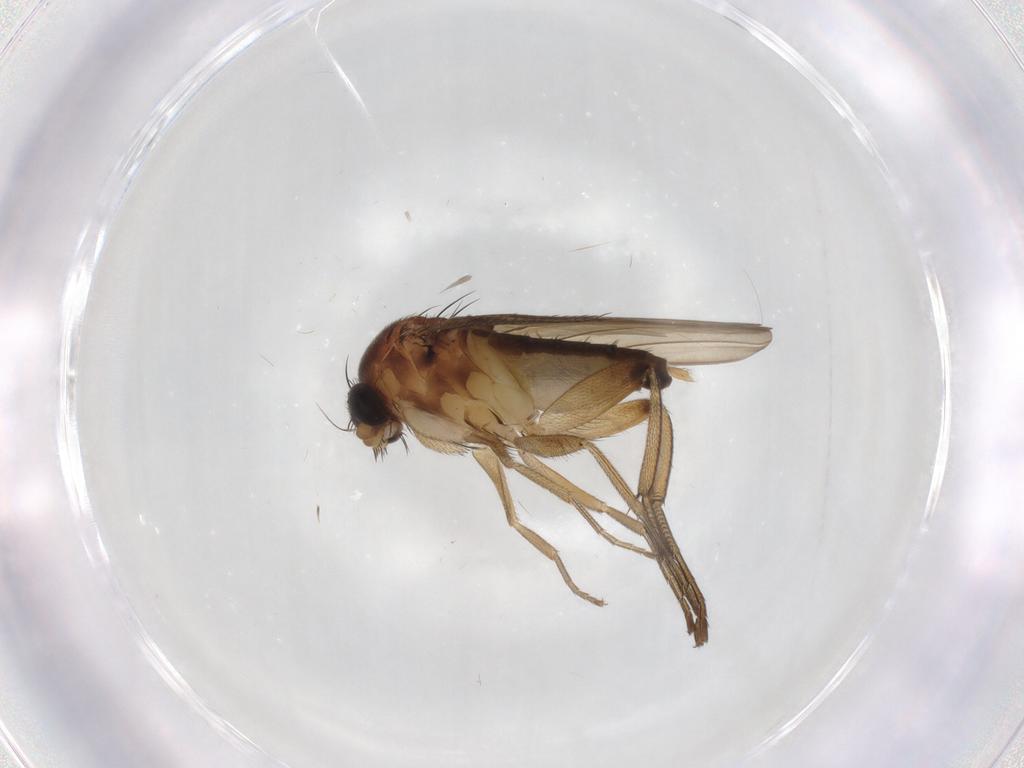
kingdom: Animalia
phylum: Arthropoda
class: Insecta
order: Diptera
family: Phoridae
